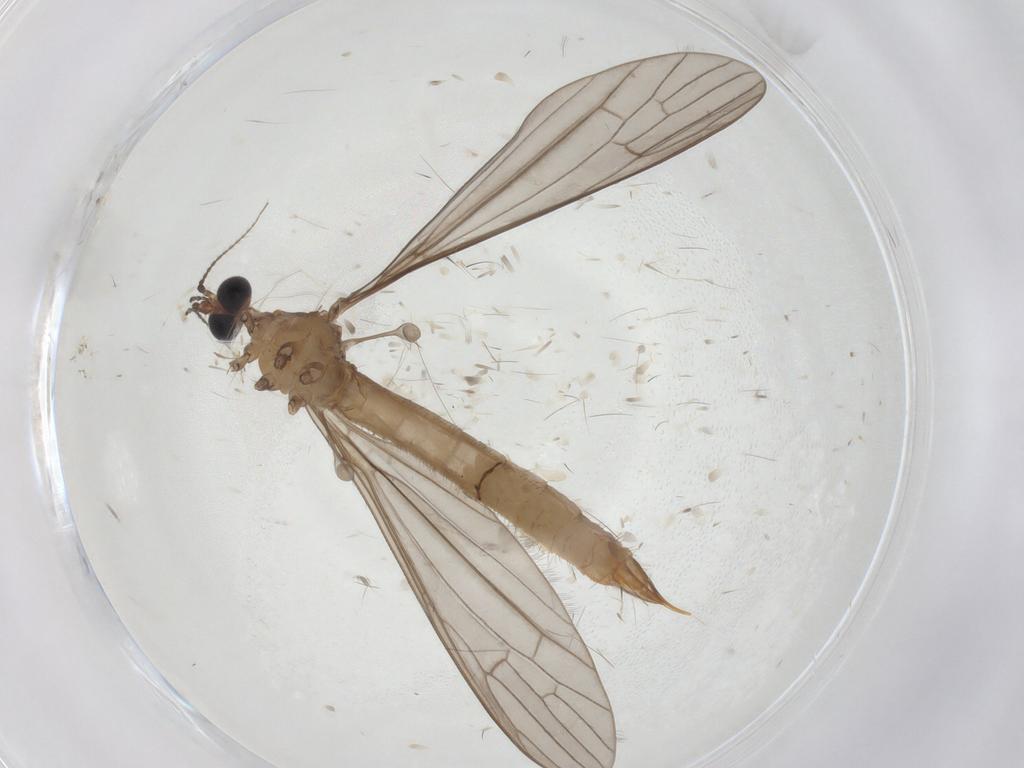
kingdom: Animalia
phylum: Arthropoda
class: Insecta
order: Diptera
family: Limoniidae
